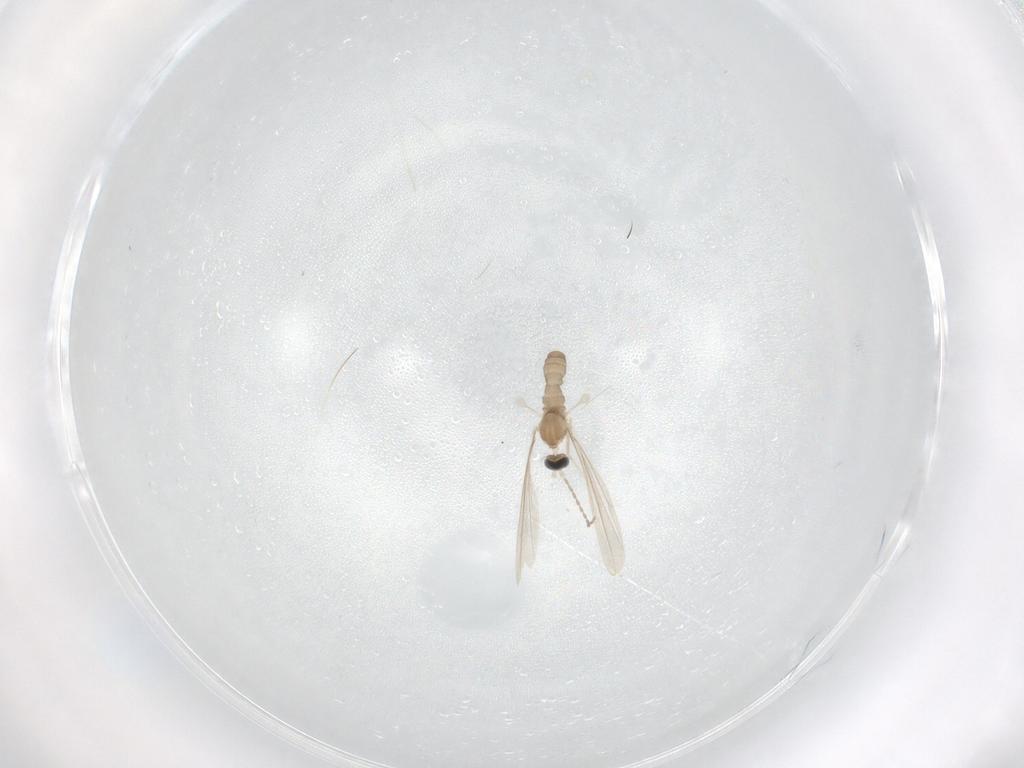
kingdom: Animalia
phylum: Arthropoda
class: Insecta
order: Diptera
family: Cecidomyiidae
